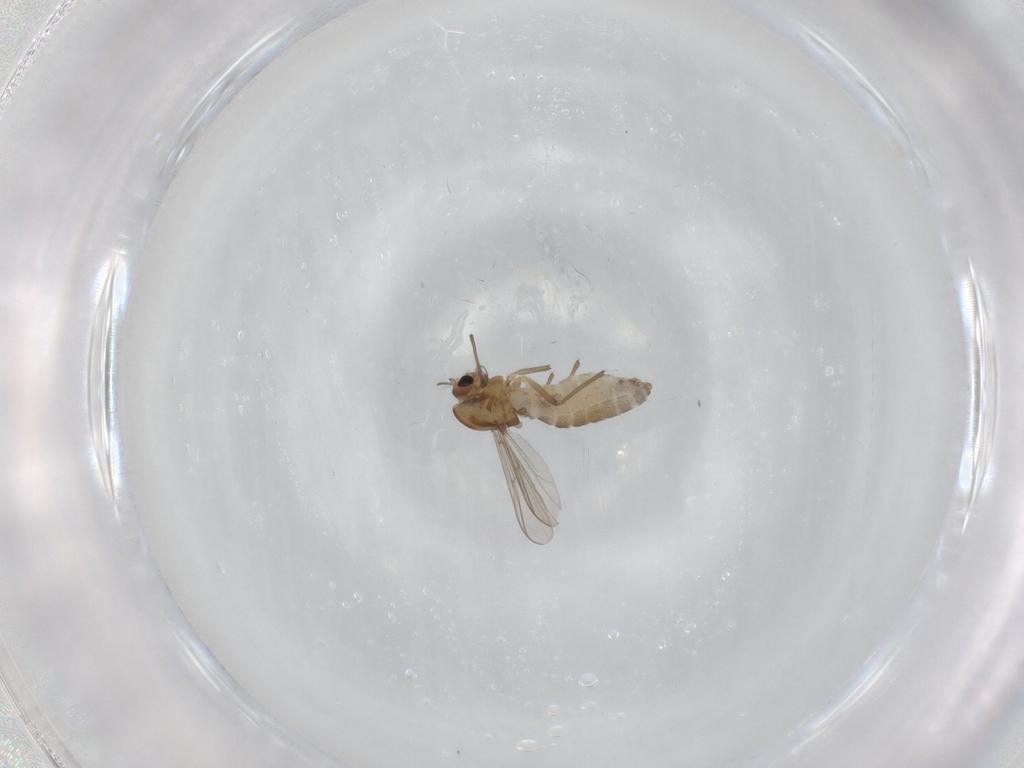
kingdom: Animalia
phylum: Arthropoda
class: Insecta
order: Diptera
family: Chironomidae
